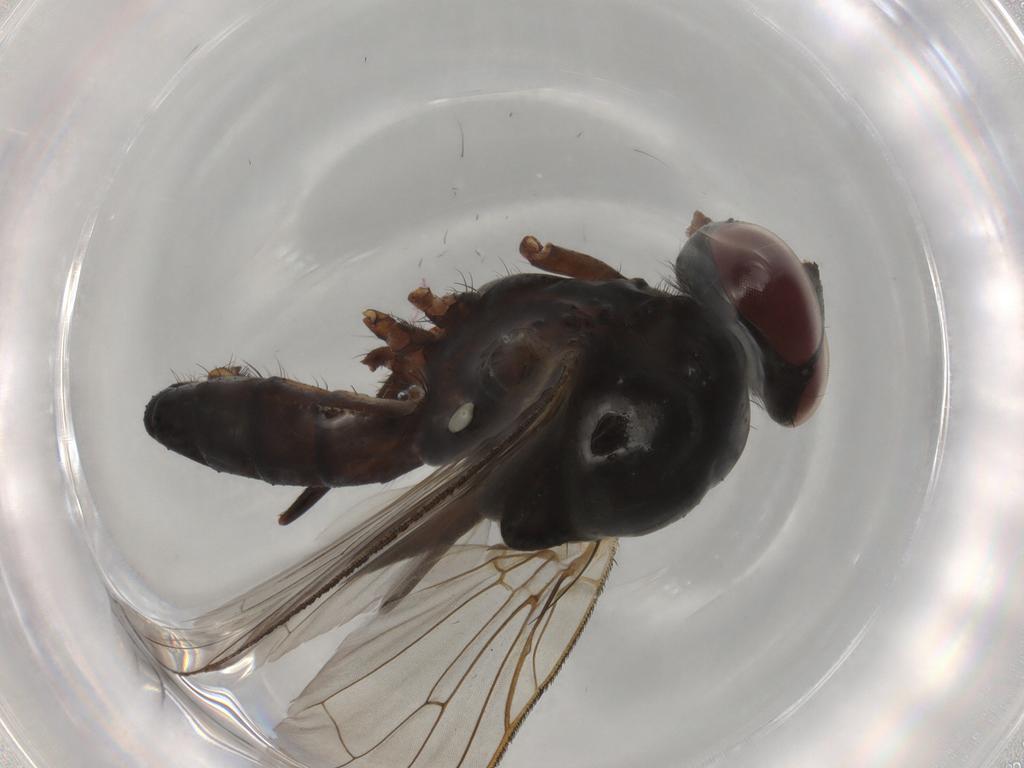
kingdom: Animalia
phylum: Arthropoda
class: Insecta
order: Diptera
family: Anthomyiidae
